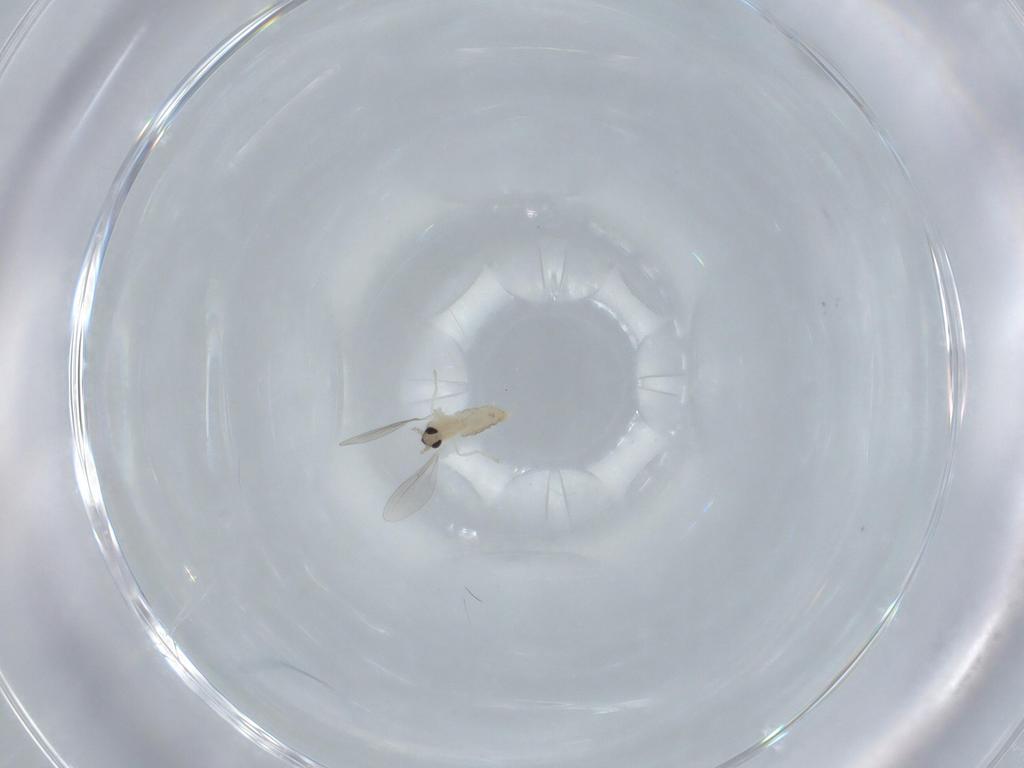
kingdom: Animalia
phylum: Arthropoda
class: Insecta
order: Diptera
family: Cecidomyiidae
